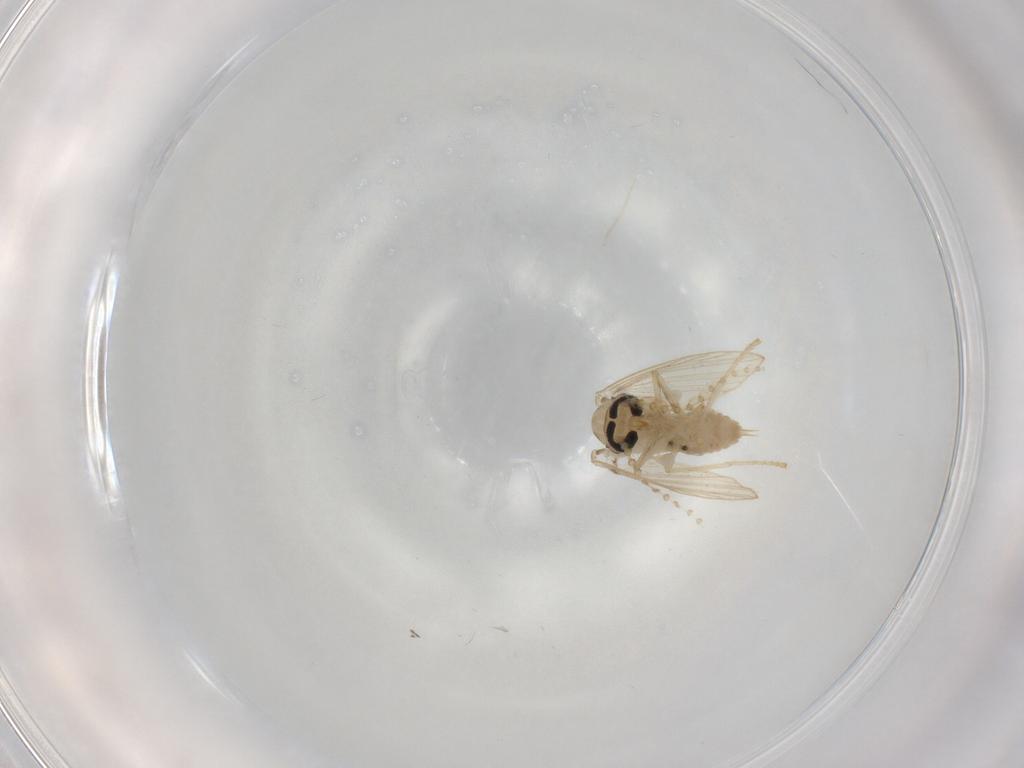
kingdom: Animalia
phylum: Arthropoda
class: Insecta
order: Diptera
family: Psychodidae
